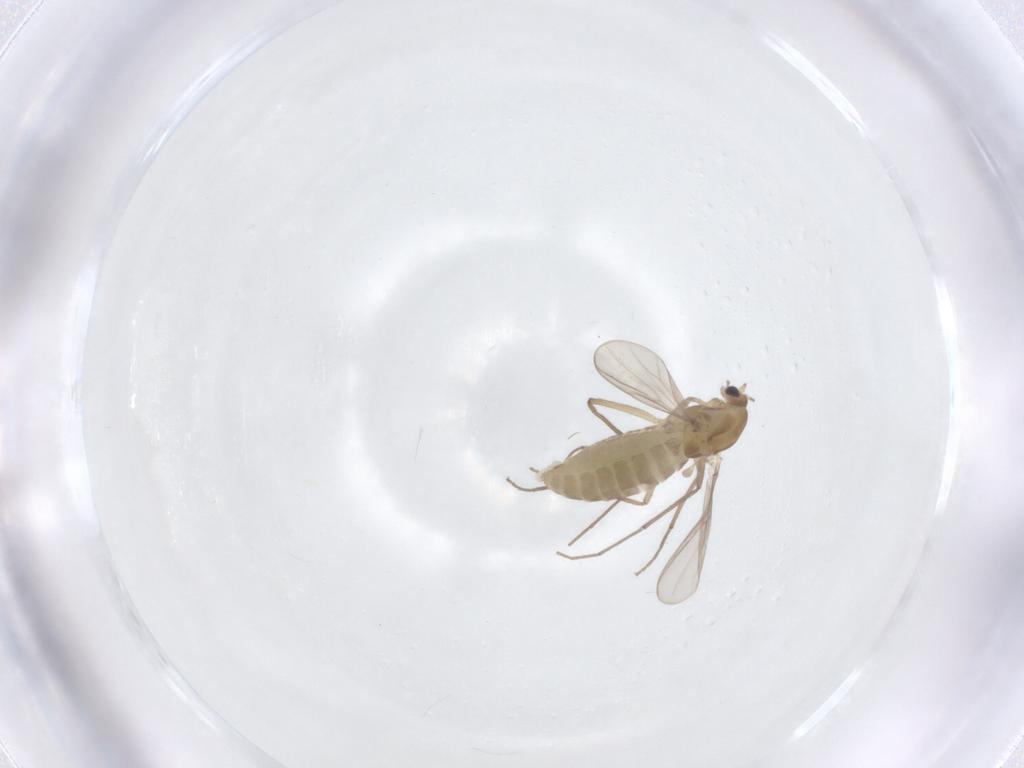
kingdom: Animalia
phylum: Arthropoda
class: Insecta
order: Diptera
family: Chironomidae
